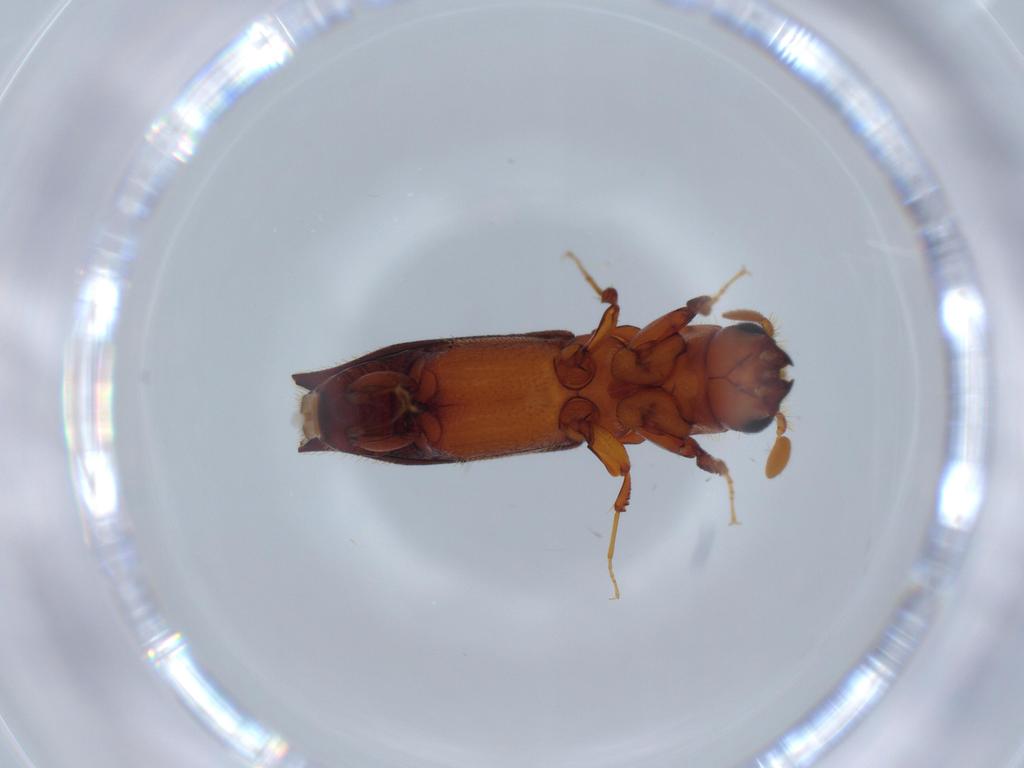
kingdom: Animalia
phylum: Arthropoda
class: Insecta
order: Coleoptera
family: Curculionidae
